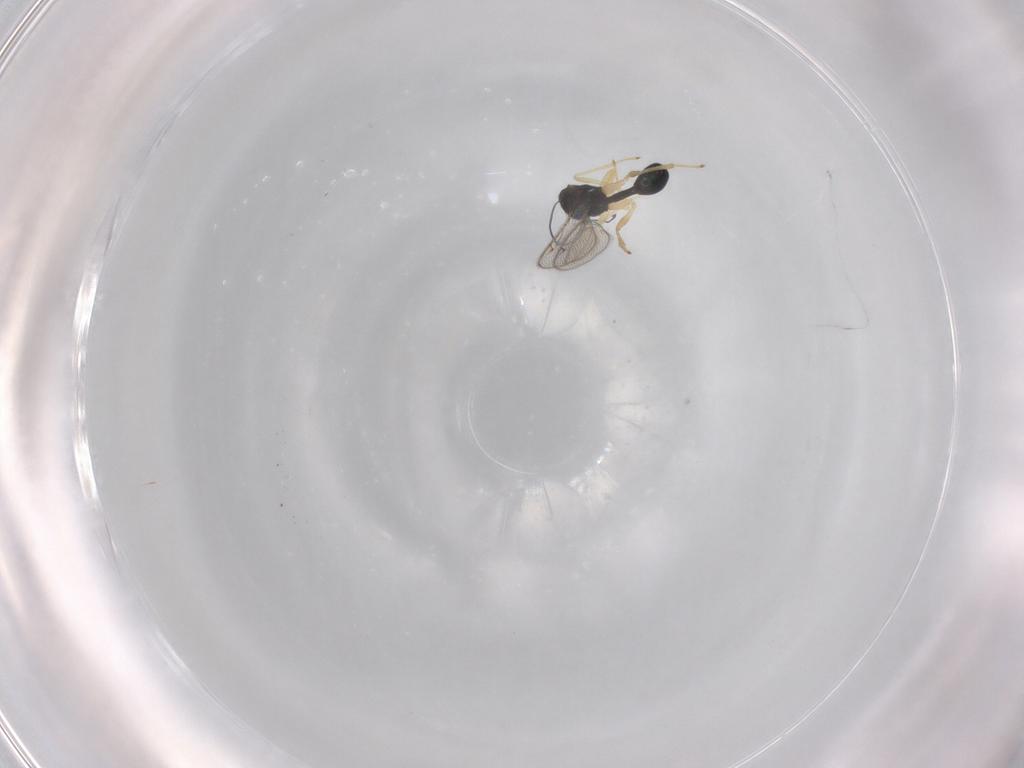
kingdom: Animalia
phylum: Arthropoda
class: Insecta
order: Hymenoptera
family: Diparidae
